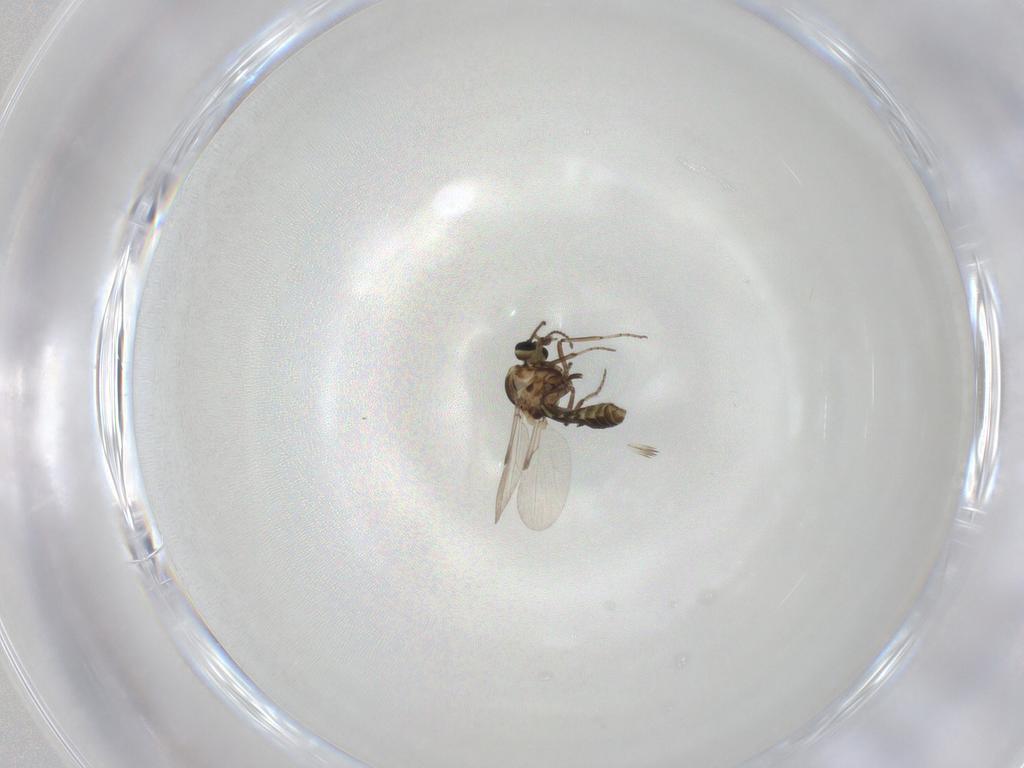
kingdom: Animalia
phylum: Arthropoda
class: Insecta
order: Diptera
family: Ceratopogonidae
